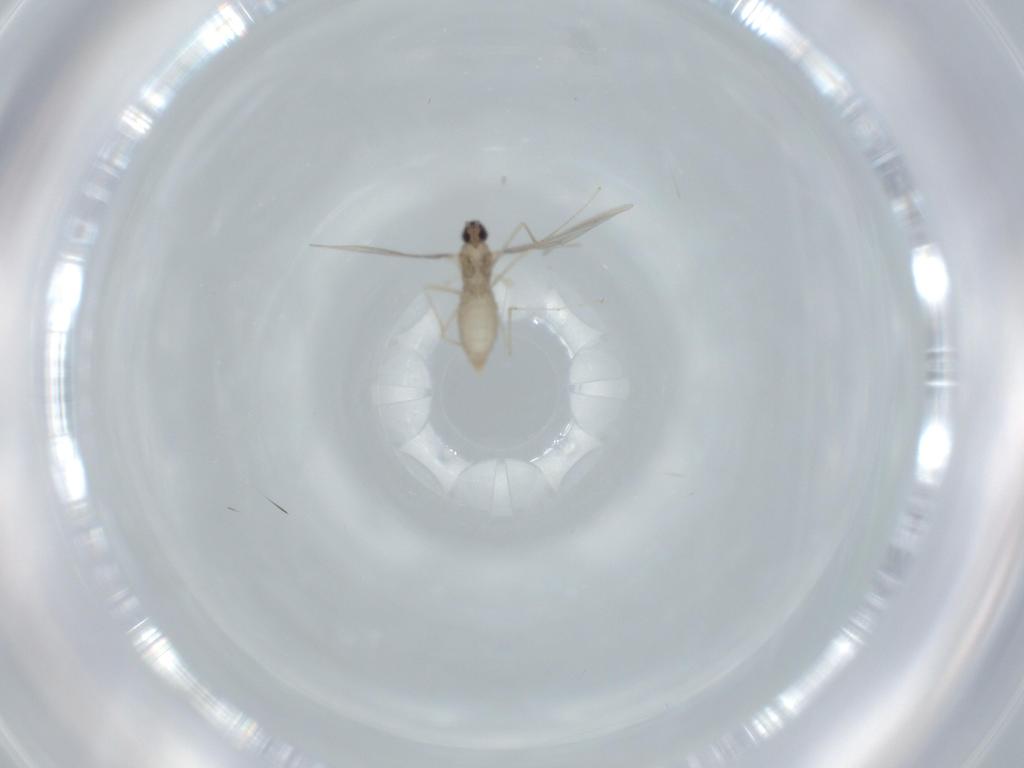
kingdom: Animalia
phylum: Arthropoda
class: Insecta
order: Diptera
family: Cecidomyiidae
